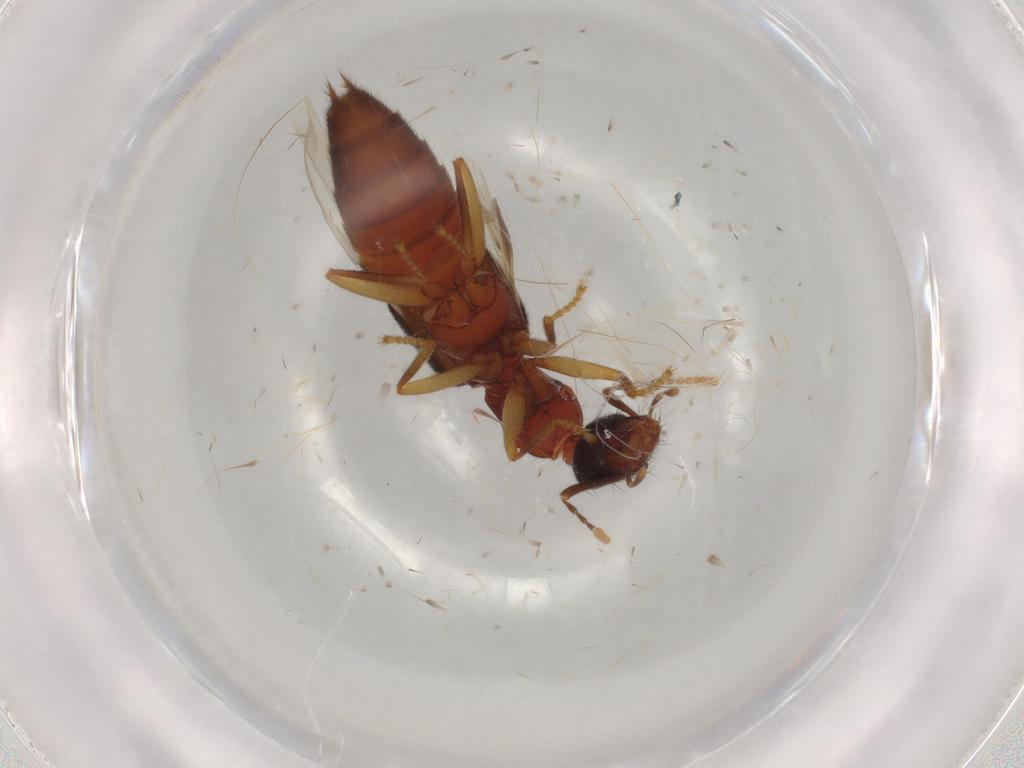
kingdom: Animalia
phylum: Arthropoda
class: Insecta
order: Coleoptera
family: Staphylinidae
